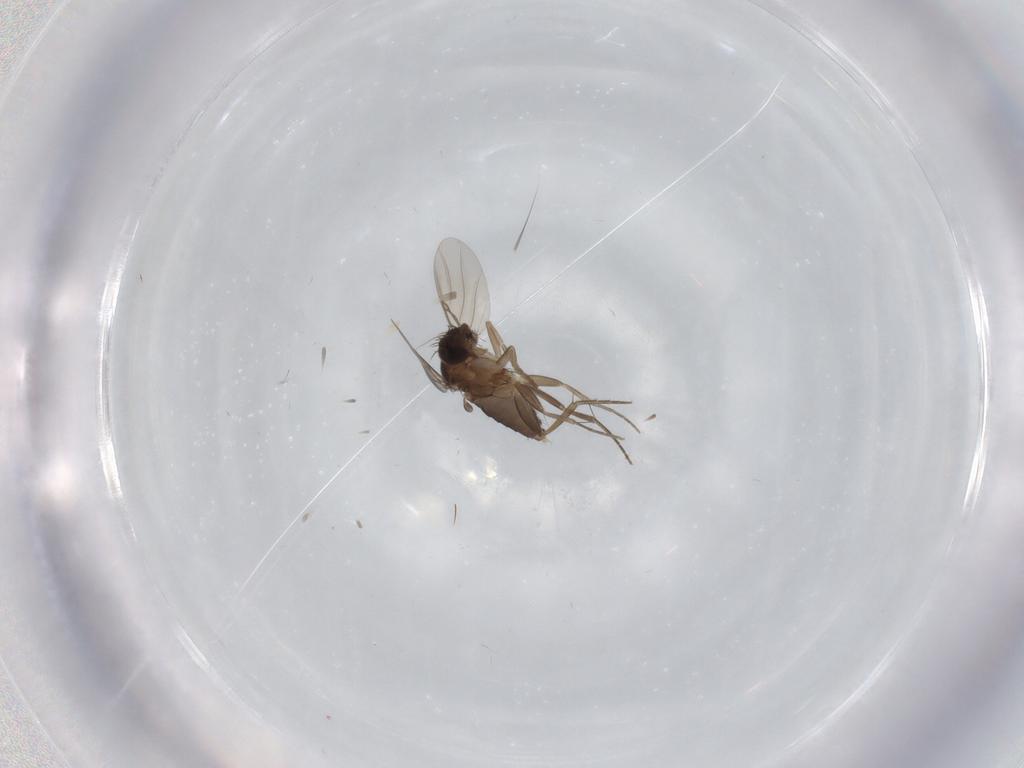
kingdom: Animalia
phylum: Arthropoda
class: Insecta
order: Diptera
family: Phoridae
